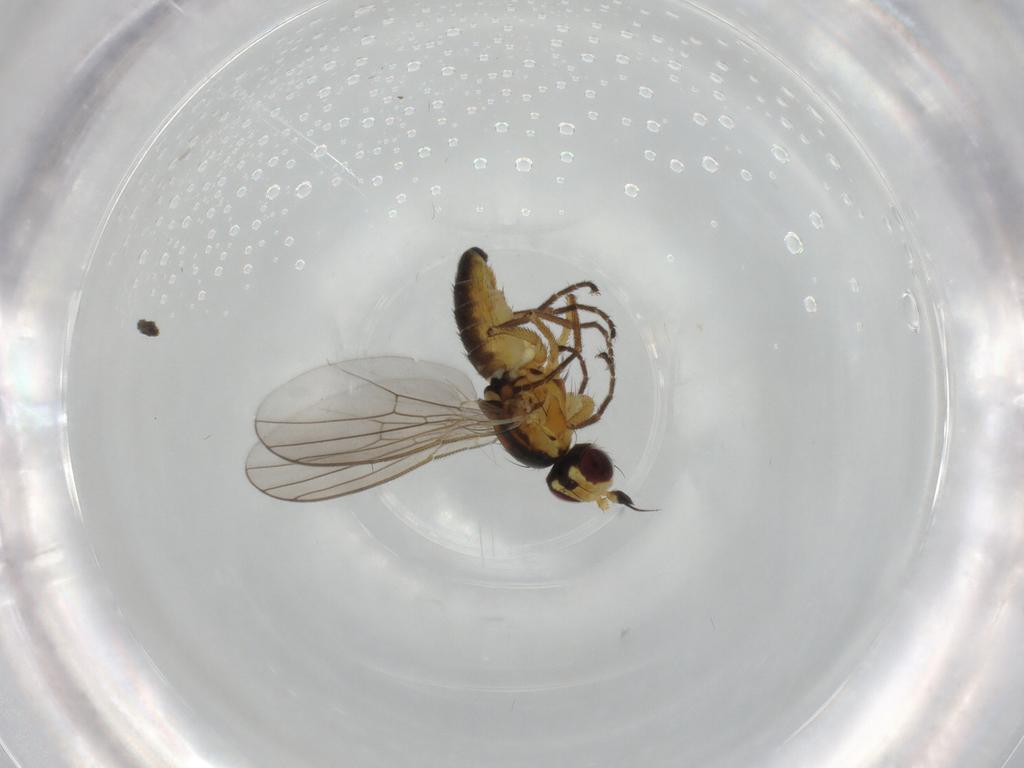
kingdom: Animalia
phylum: Arthropoda
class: Insecta
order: Diptera
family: Agromyzidae
